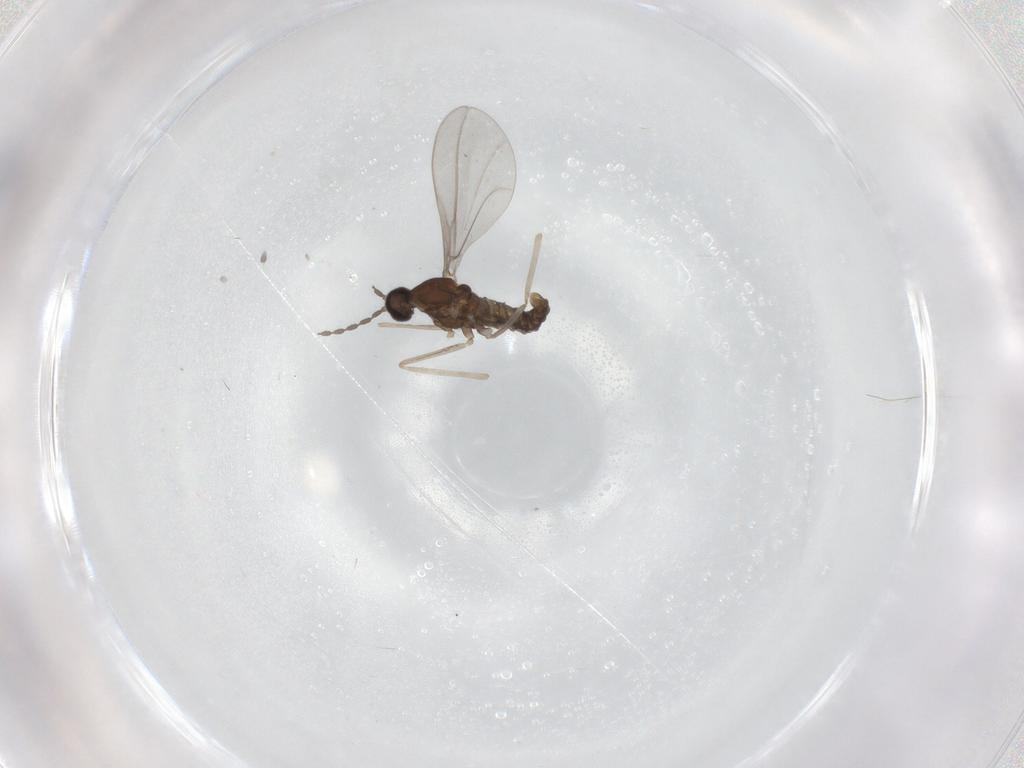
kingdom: Animalia
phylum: Arthropoda
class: Insecta
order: Diptera
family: Cecidomyiidae
